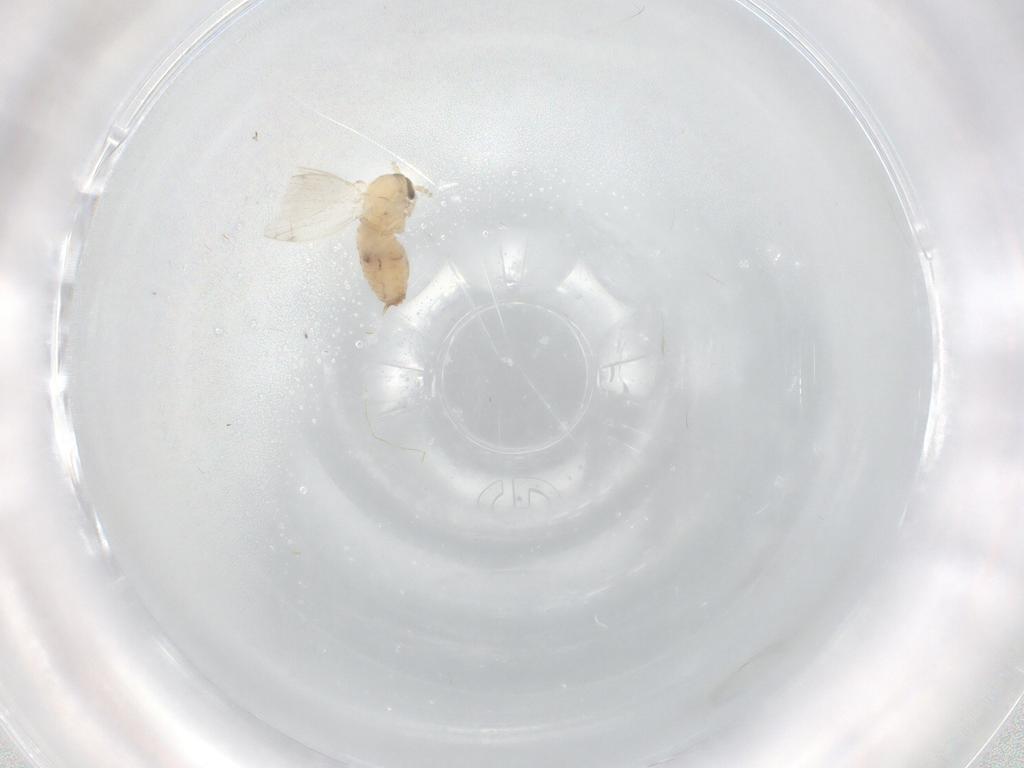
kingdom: Animalia
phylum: Arthropoda
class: Insecta
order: Diptera
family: Psychodidae
